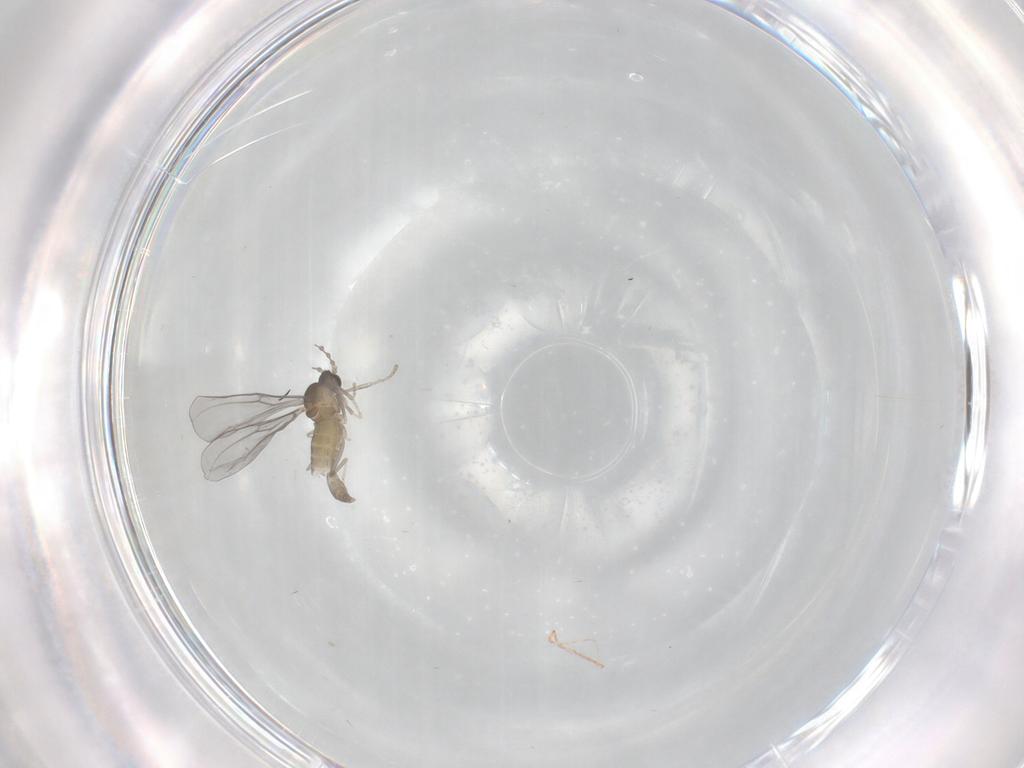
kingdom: Animalia
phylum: Arthropoda
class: Insecta
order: Diptera
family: Cecidomyiidae
